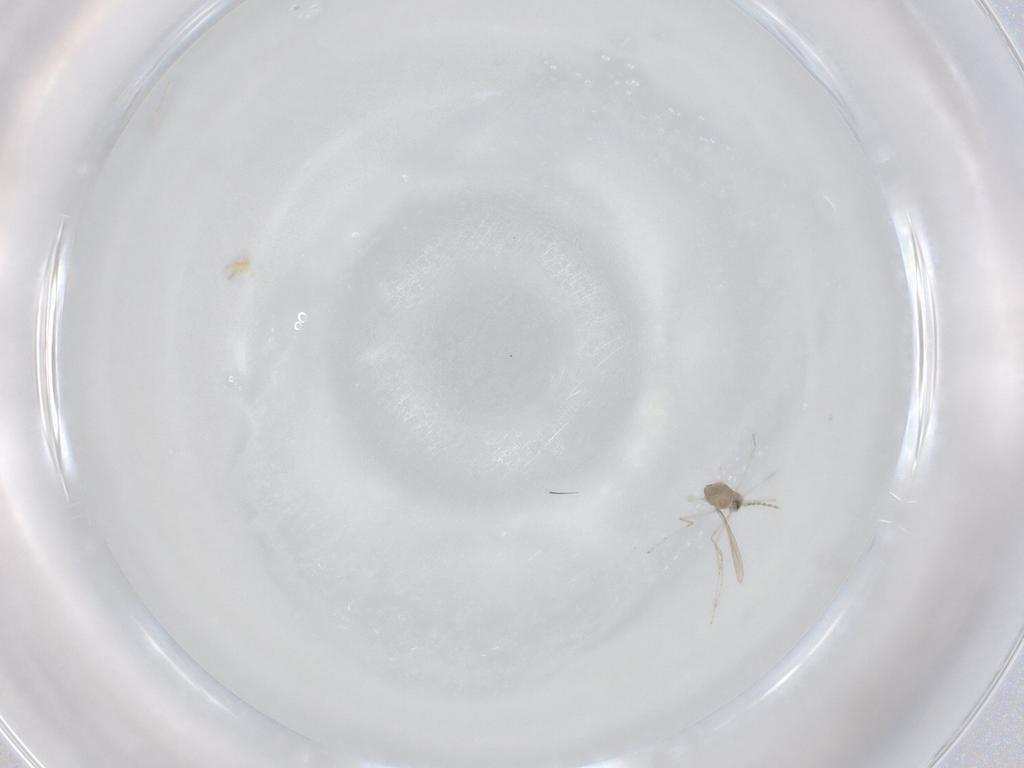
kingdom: Animalia
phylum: Arthropoda
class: Insecta
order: Diptera
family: Cecidomyiidae
